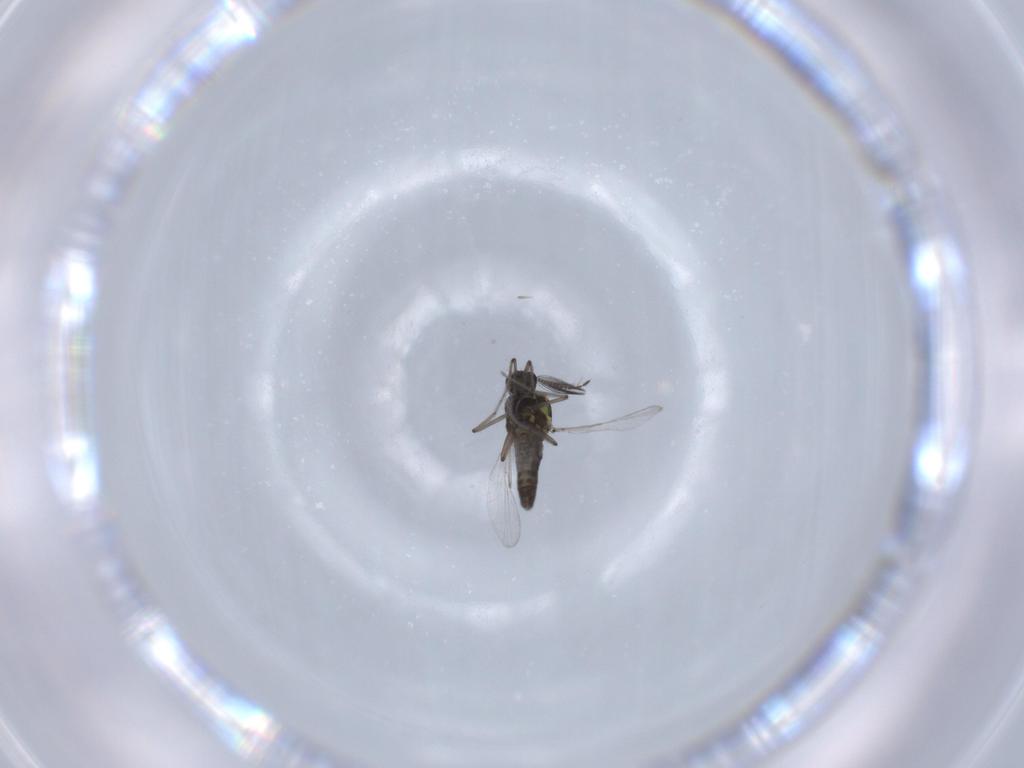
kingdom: Animalia
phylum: Arthropoda
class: Insecta
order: Diptera
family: Ceratopogonidae
